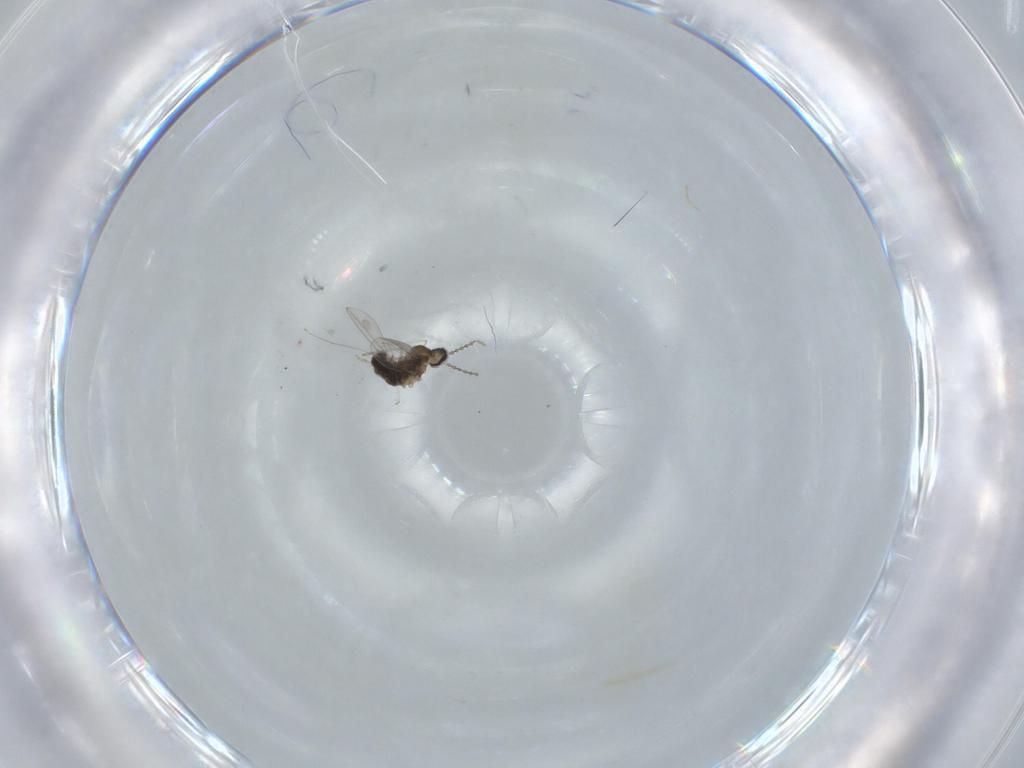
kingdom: Animalia
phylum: Arthropoda
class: Insecta
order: Diptera
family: Cecidomyiidae
